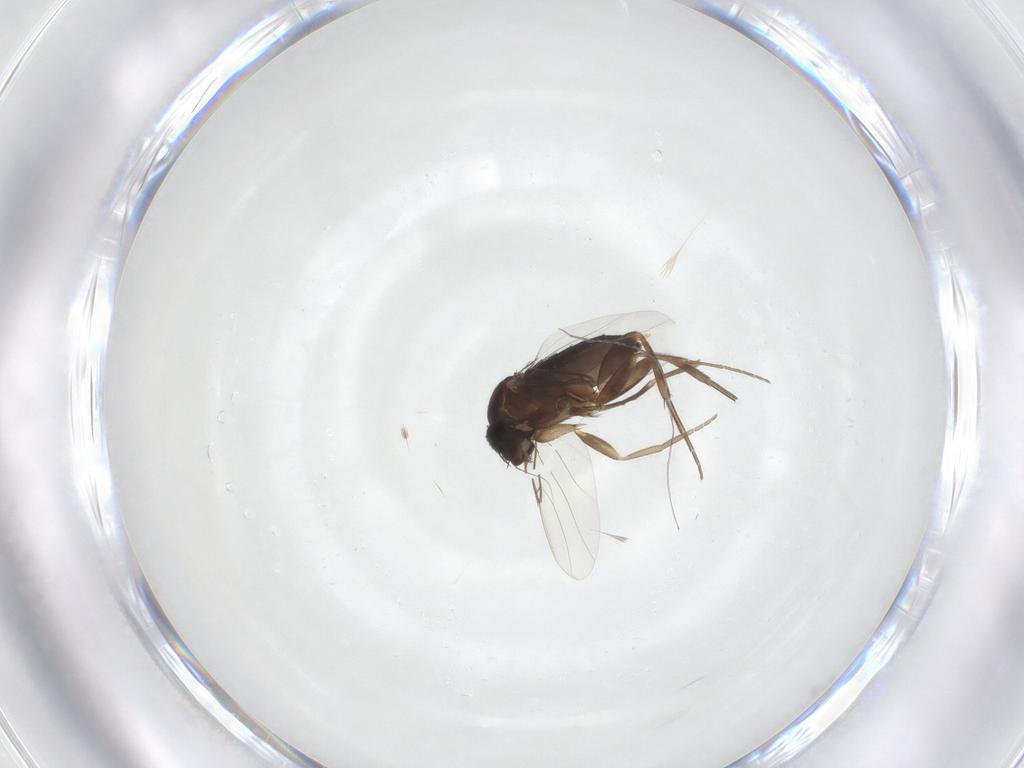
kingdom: Animalia
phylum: Arthropoda
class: Insecta
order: Diptera
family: Phoridae
